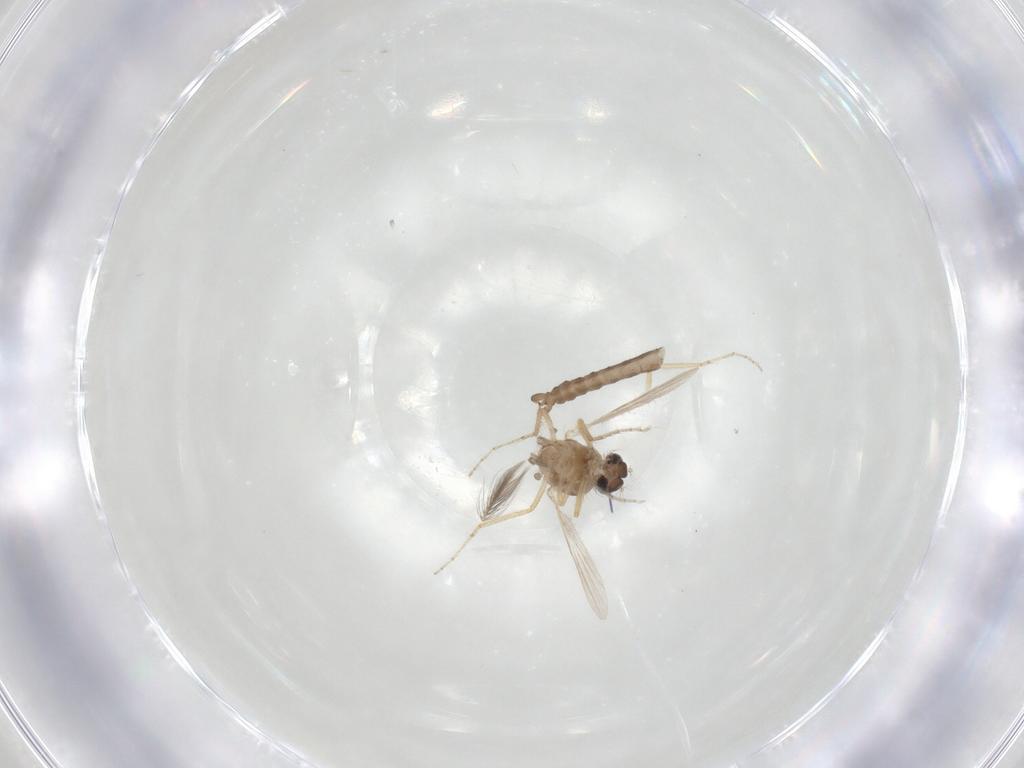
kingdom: Animalia
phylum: Arthropoda
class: Insecta
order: Diptera
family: Ceratopogonidae
